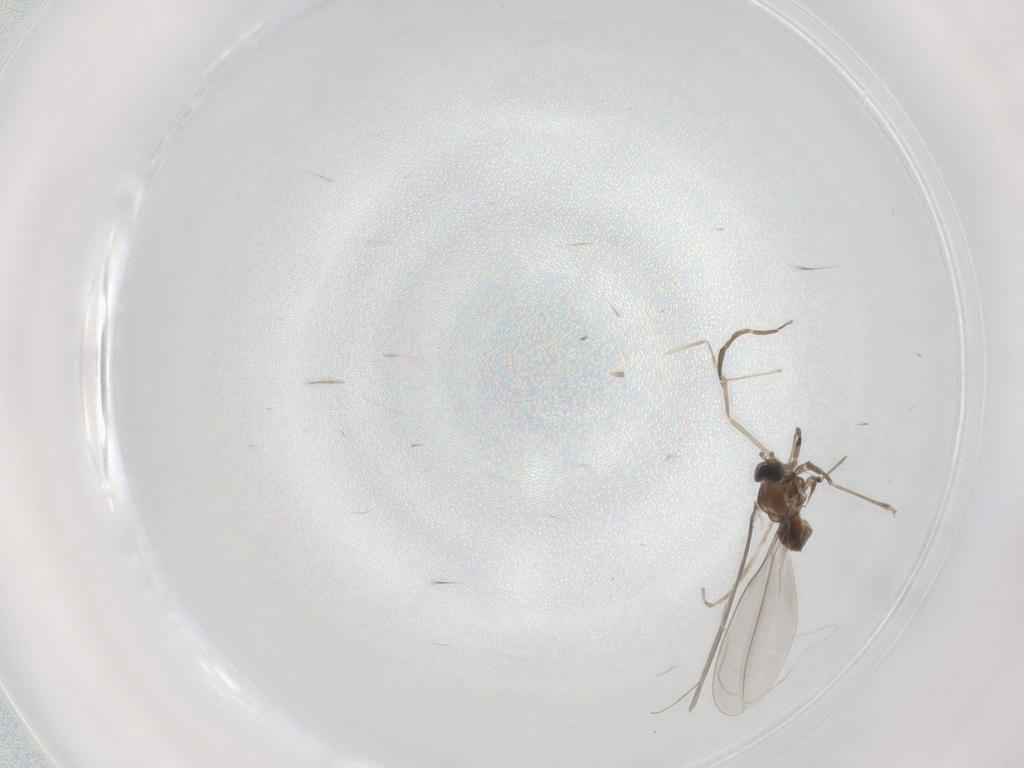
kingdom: Animalia
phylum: Arthropoda
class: Insecta
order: Diptera
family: Cecidomyiidae
